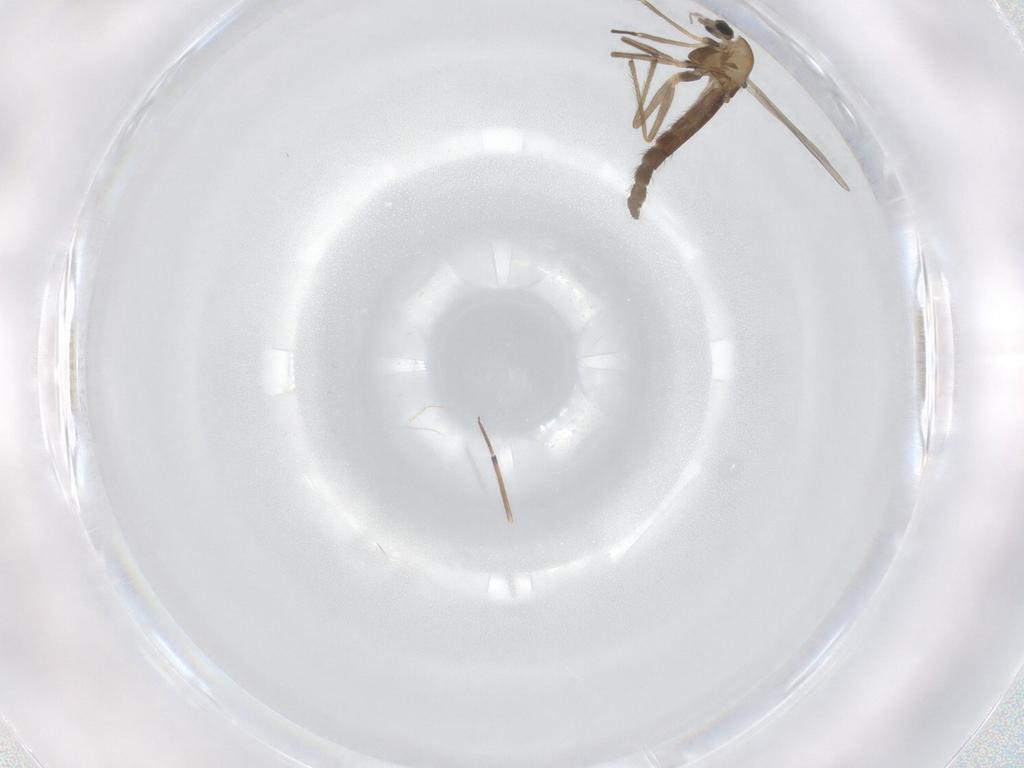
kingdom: Animalia
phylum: Arthropoda
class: Insecta
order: Diptera
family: Chironomidae
